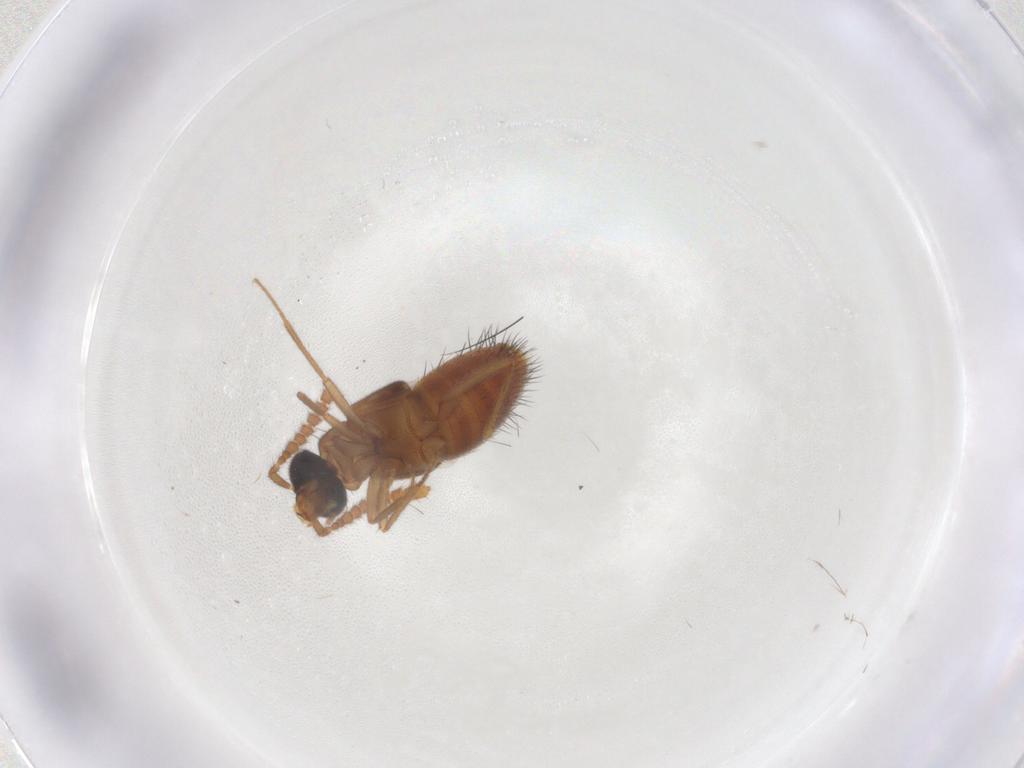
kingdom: Animalia
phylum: Arthropoda
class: Insecta
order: Coleoptera
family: Staphylinidae
